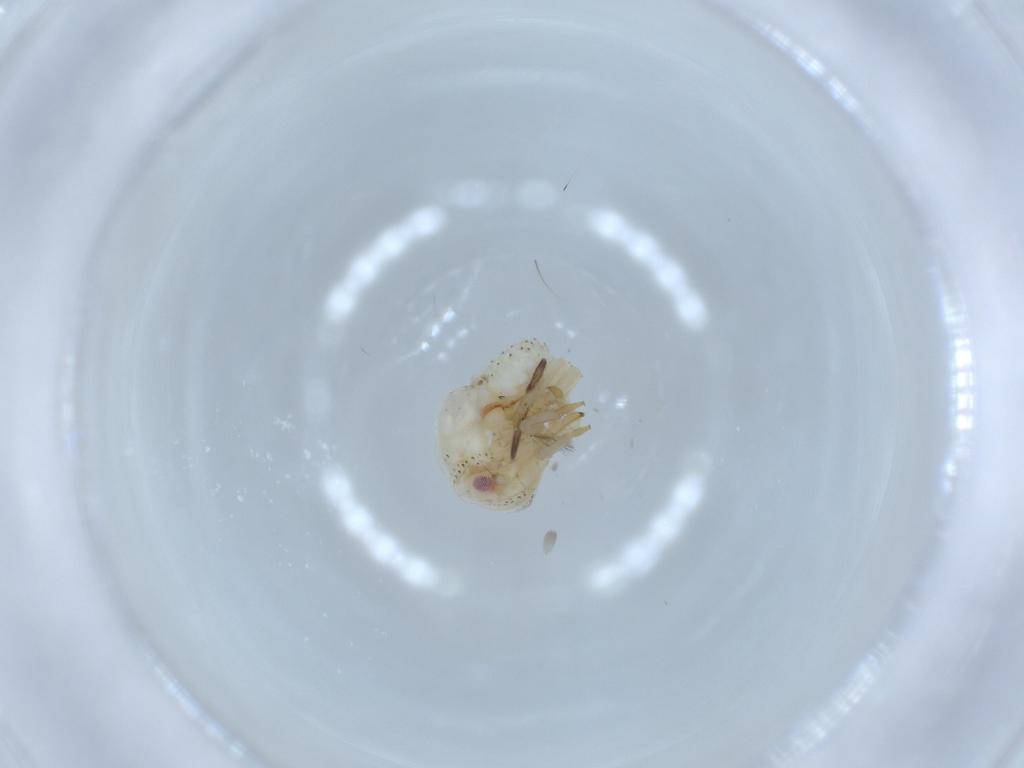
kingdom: Animalia
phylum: Arthropoda
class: Insecta
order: Hemiptera
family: Acanaloniidae
